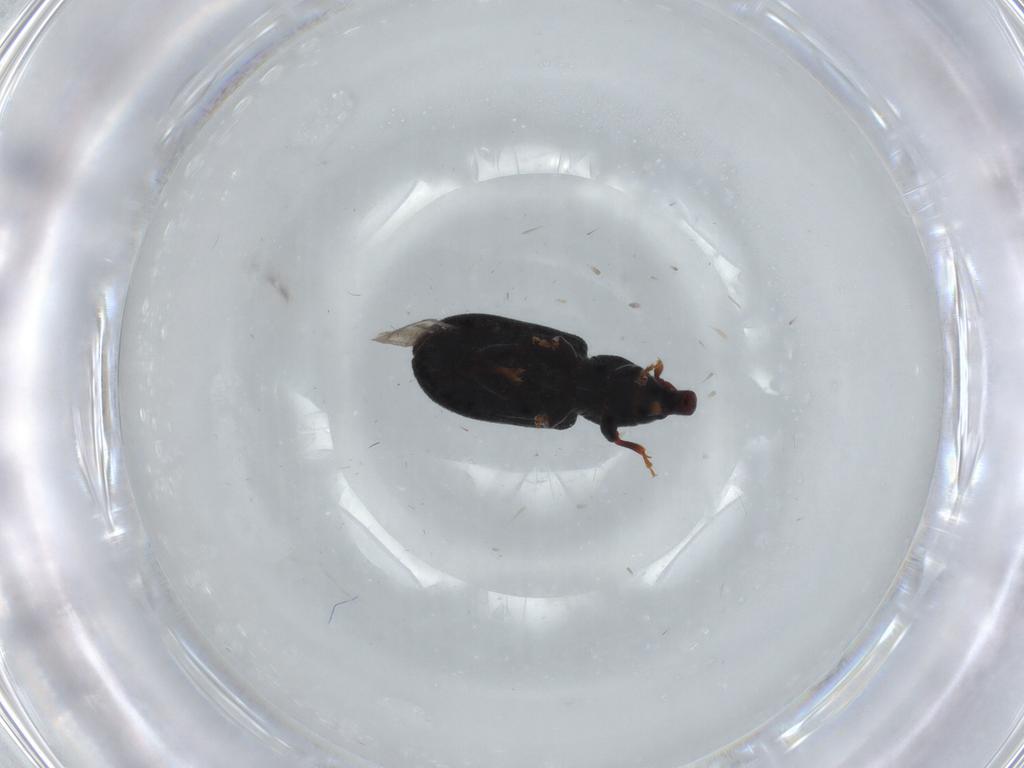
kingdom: Animalia
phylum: Arthropoda
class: Insecta
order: Coleoptera
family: Curculionidae
